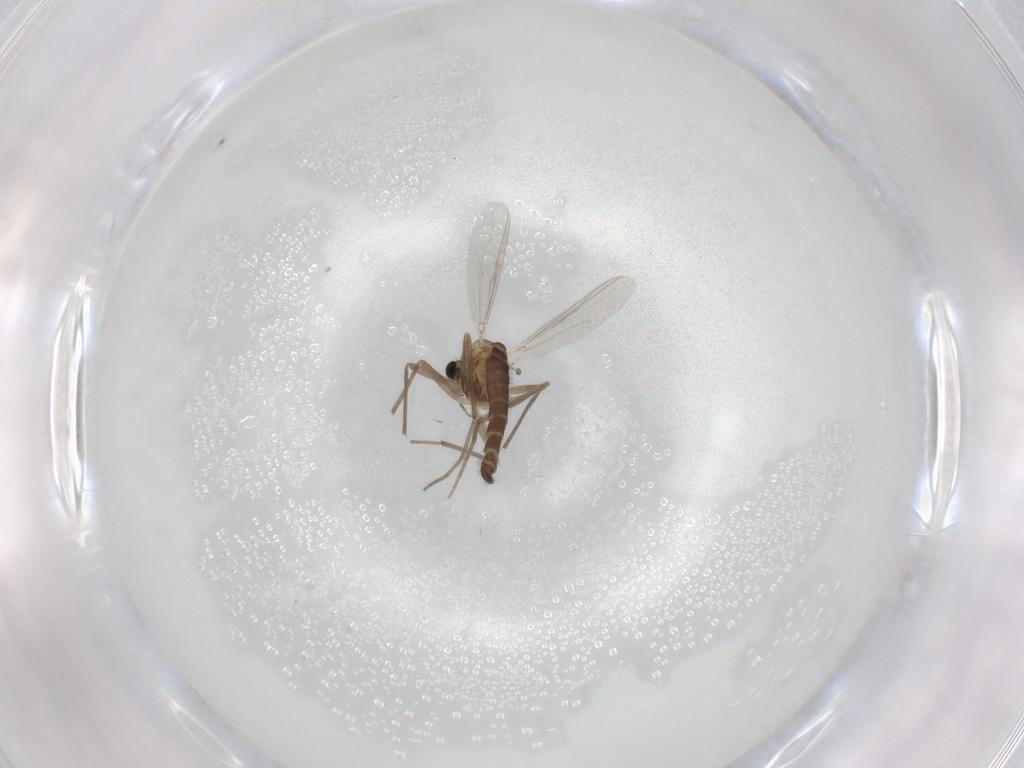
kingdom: Animalia
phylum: Arthropoda
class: Insecta
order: Diptera
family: Chironomidae
